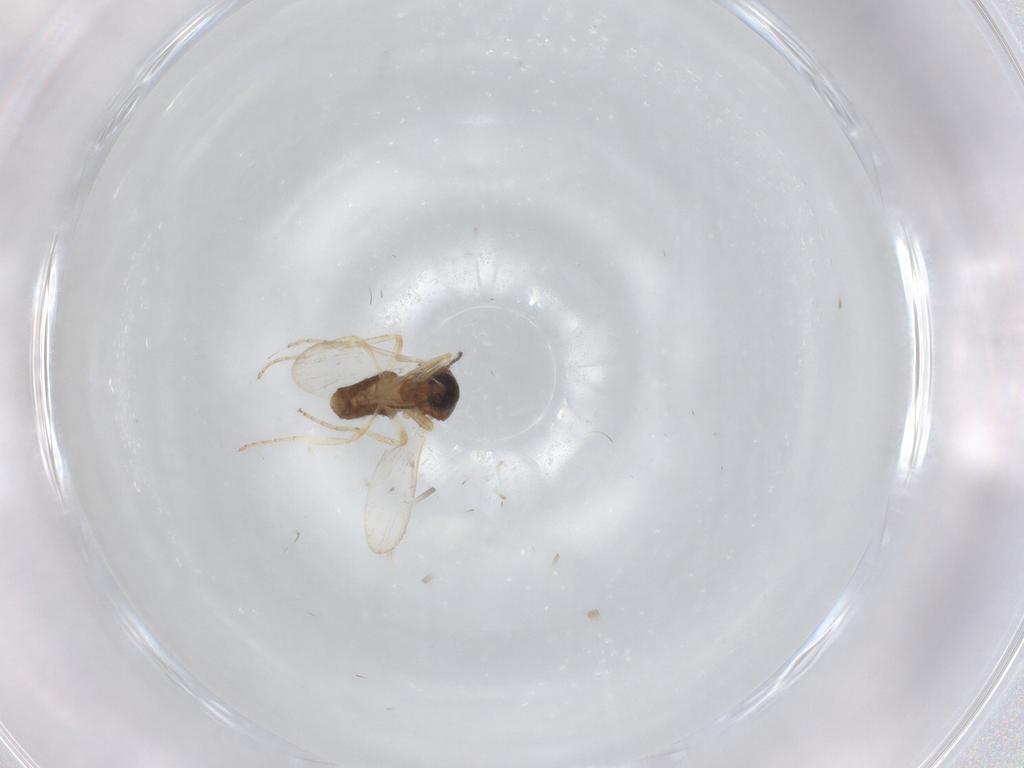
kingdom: Animalia
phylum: Arthropoda
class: Insecta
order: Diptera
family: Ceratopogonidae
